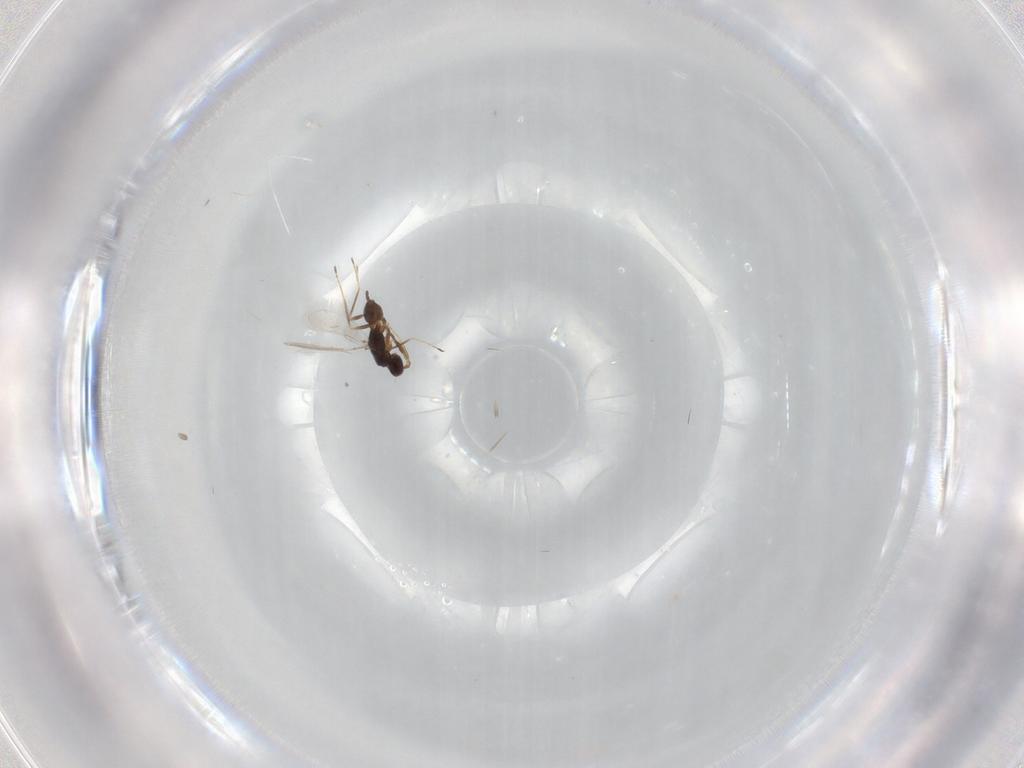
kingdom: Animalia
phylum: Arthropoda
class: Insecta
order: Hymenoptera
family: Mymaridae
